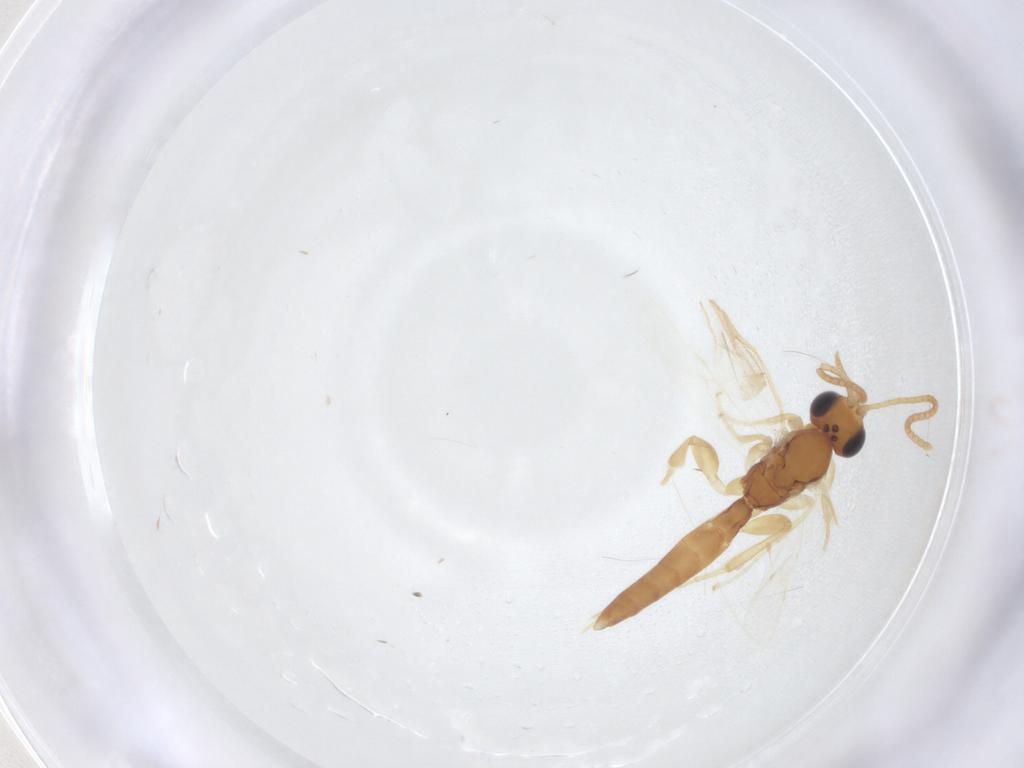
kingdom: Animalia
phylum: Arthropoda
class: Insecta
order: Hymenoptera
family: Ichneumonidae
